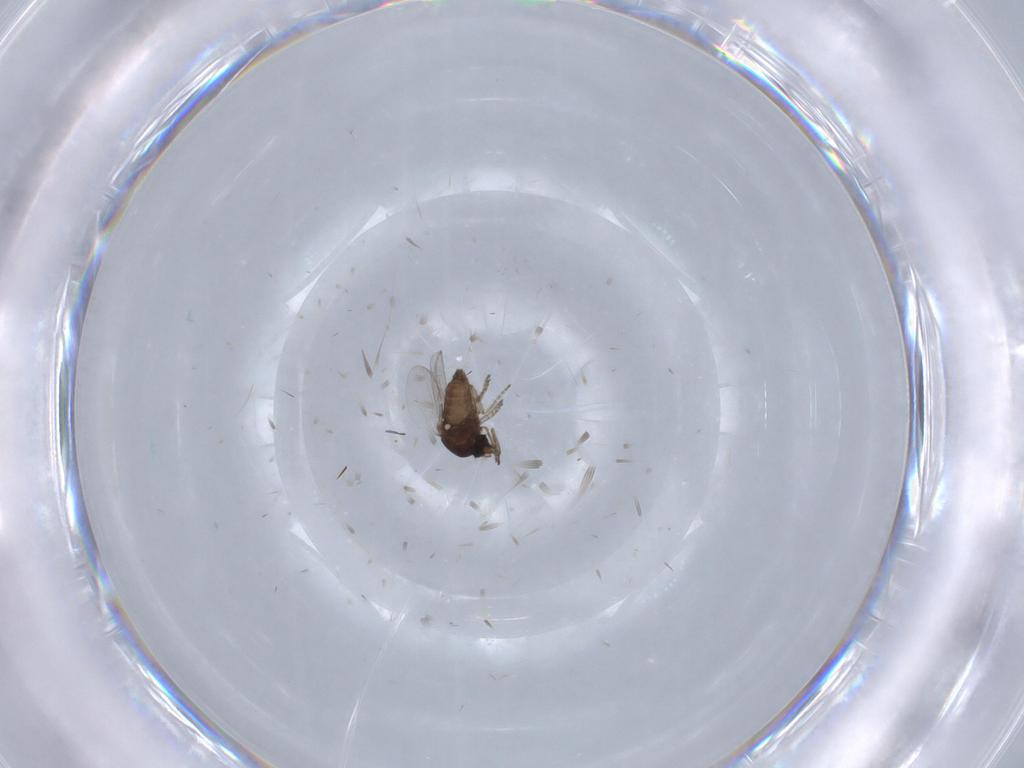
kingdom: Animalia
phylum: Arthropoda
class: Insecta
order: Diptera
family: Ceratopogonidae
